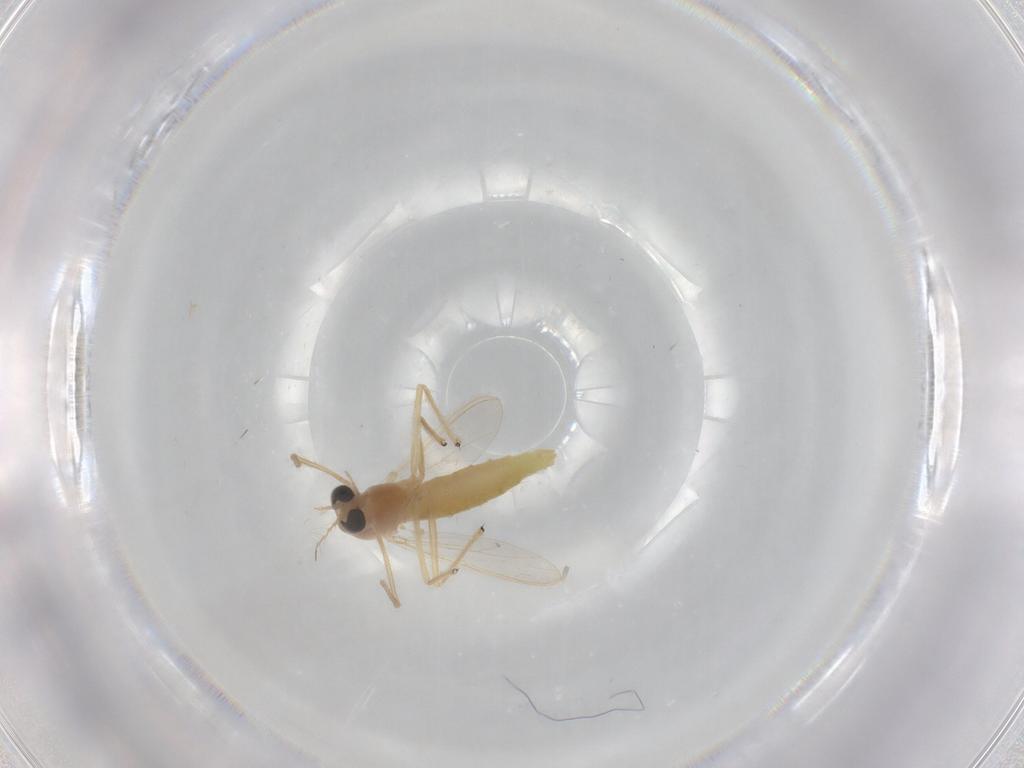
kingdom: Animalia
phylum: Arthropoda
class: Insecta
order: Diptera
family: Chironomidae
